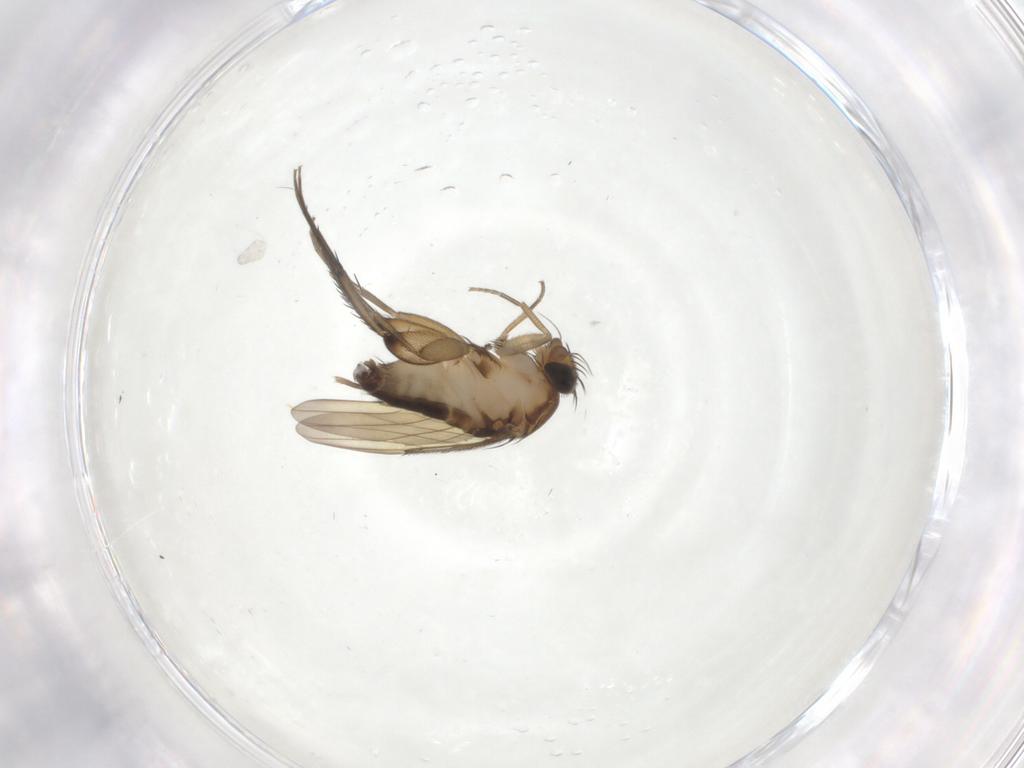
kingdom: Animalia
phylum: Arthropoda
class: Insecta
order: Diptera
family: Phoridae
